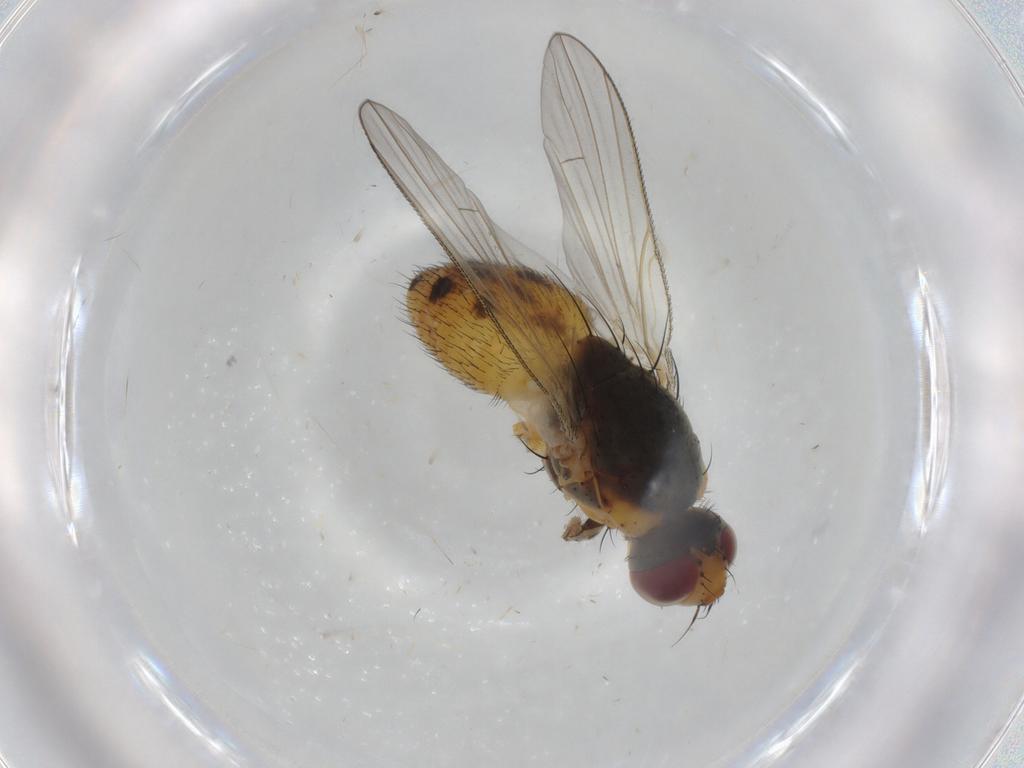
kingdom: Animalia
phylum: Arthropoda
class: Insecta
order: Diptera
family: Muscidae
